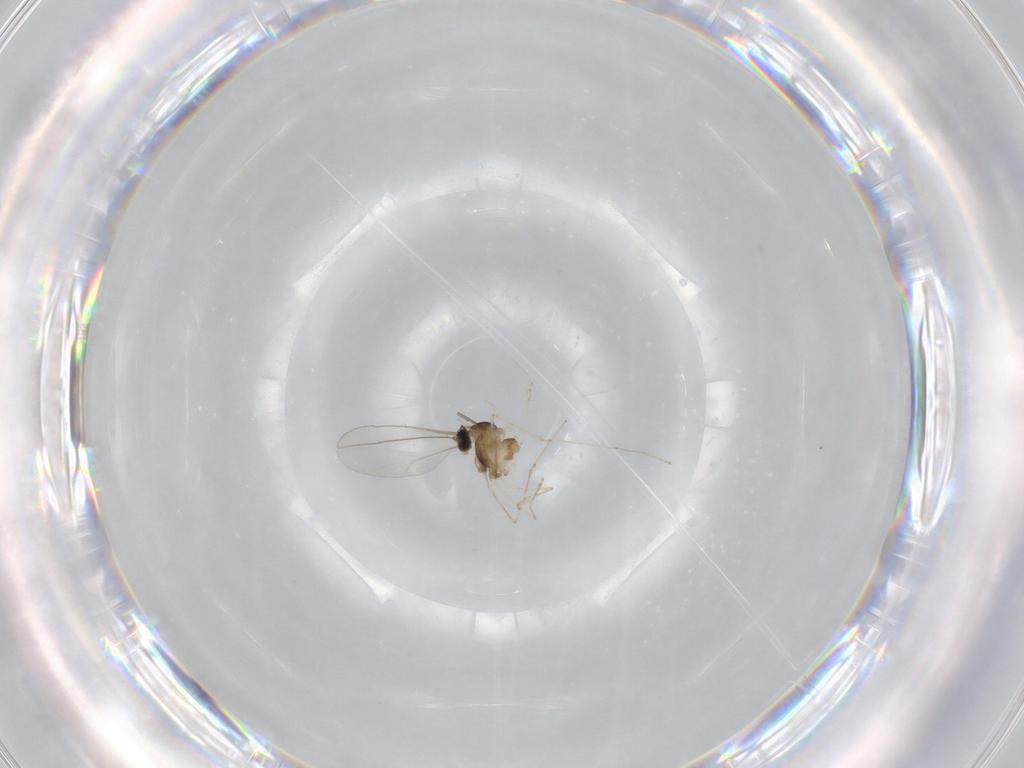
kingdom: Animalia
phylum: Arthropoda
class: Insecta
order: Diptera
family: Cecidomyiidae
